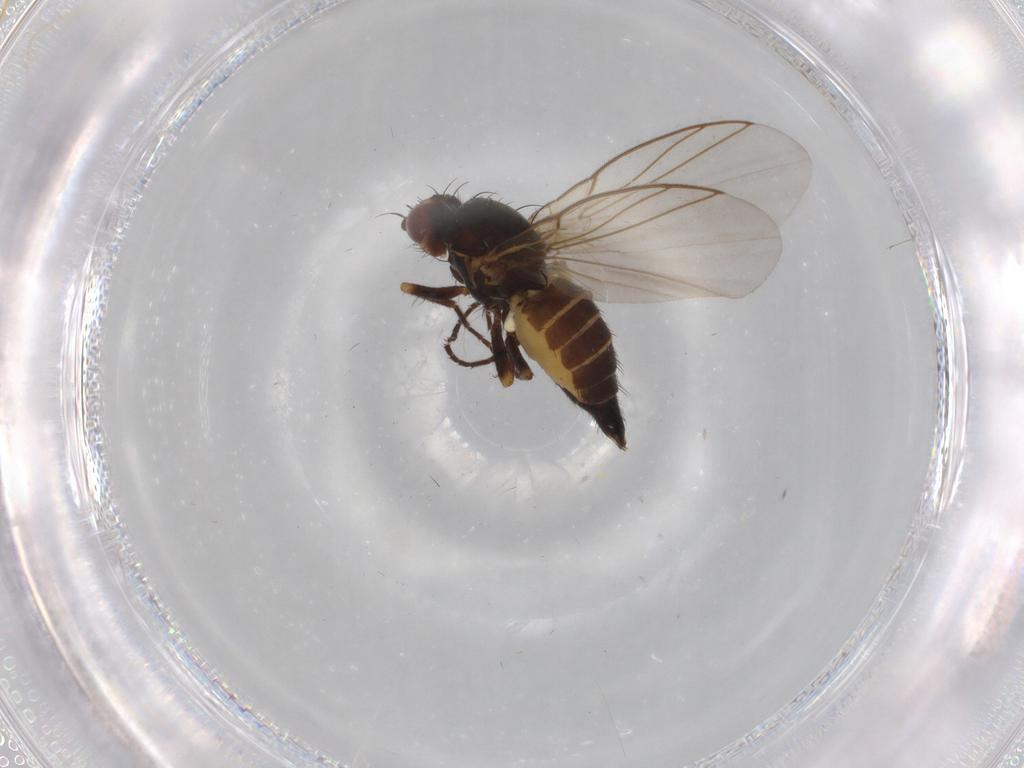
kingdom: Animalia
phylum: Arthropoda
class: Insecta
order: Diptera
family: Agromyzidae
